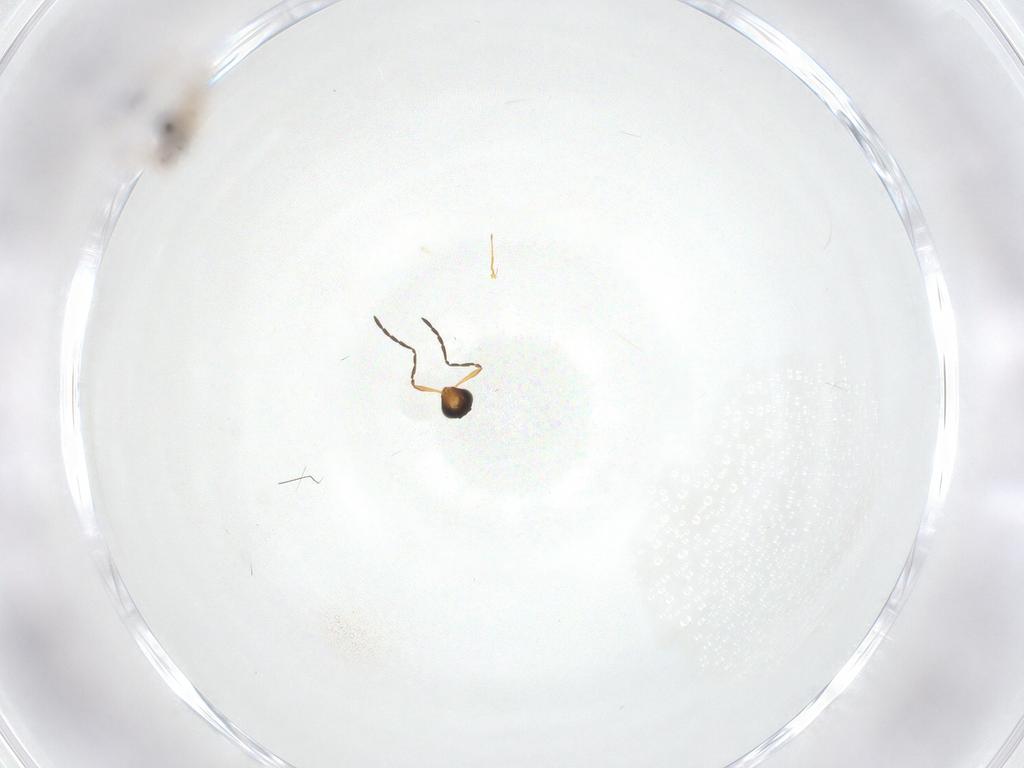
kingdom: Animalia
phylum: Arthropoda
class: Insecta
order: Hymenoptera
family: Platygastridae
